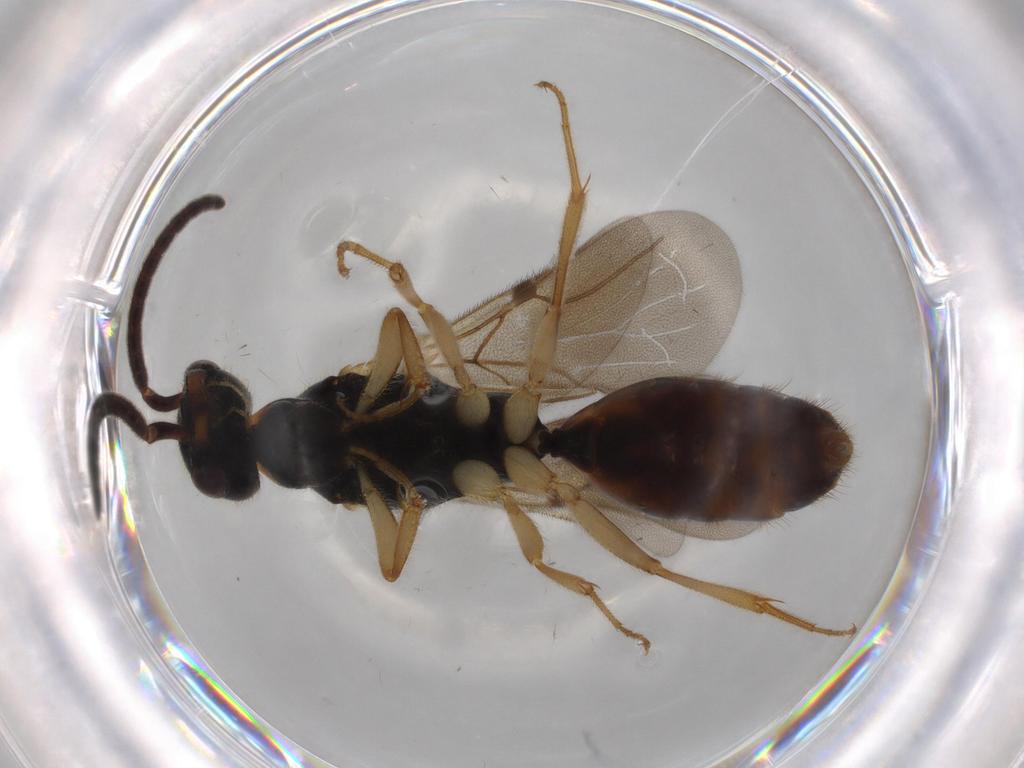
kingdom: Animalia
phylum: Arthropoda
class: Insecta
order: Hymenoptera
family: Bethylidae
